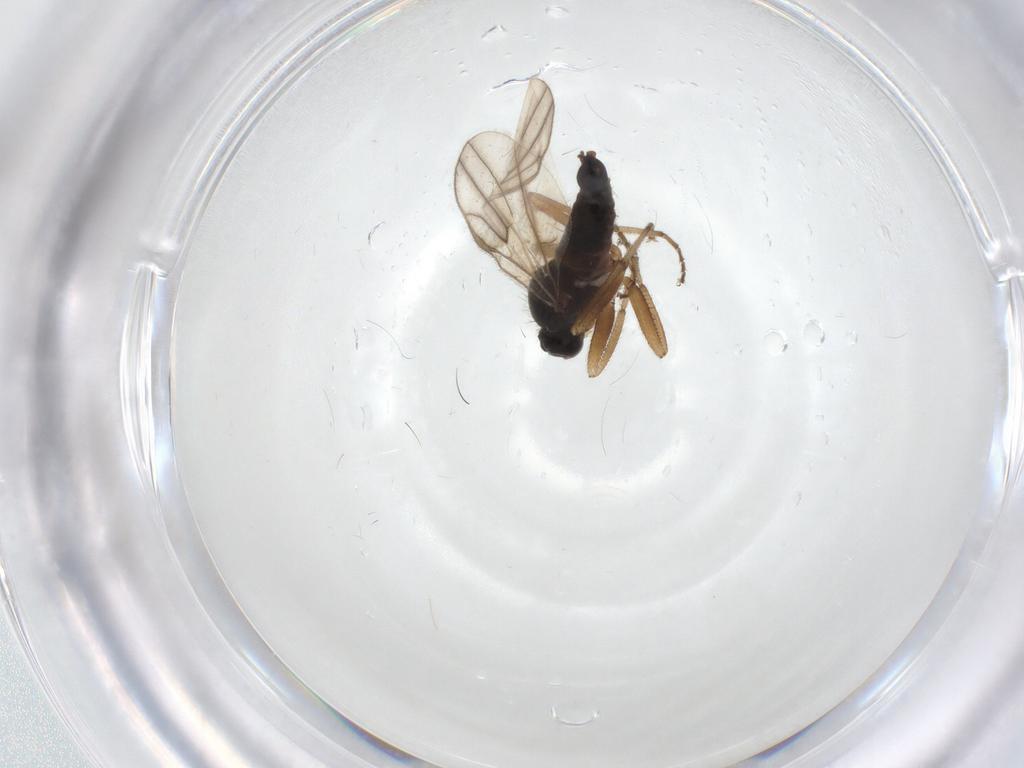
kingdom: Animalia
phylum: Arthropoda
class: Insecta
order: Diptera
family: Hybotidae
